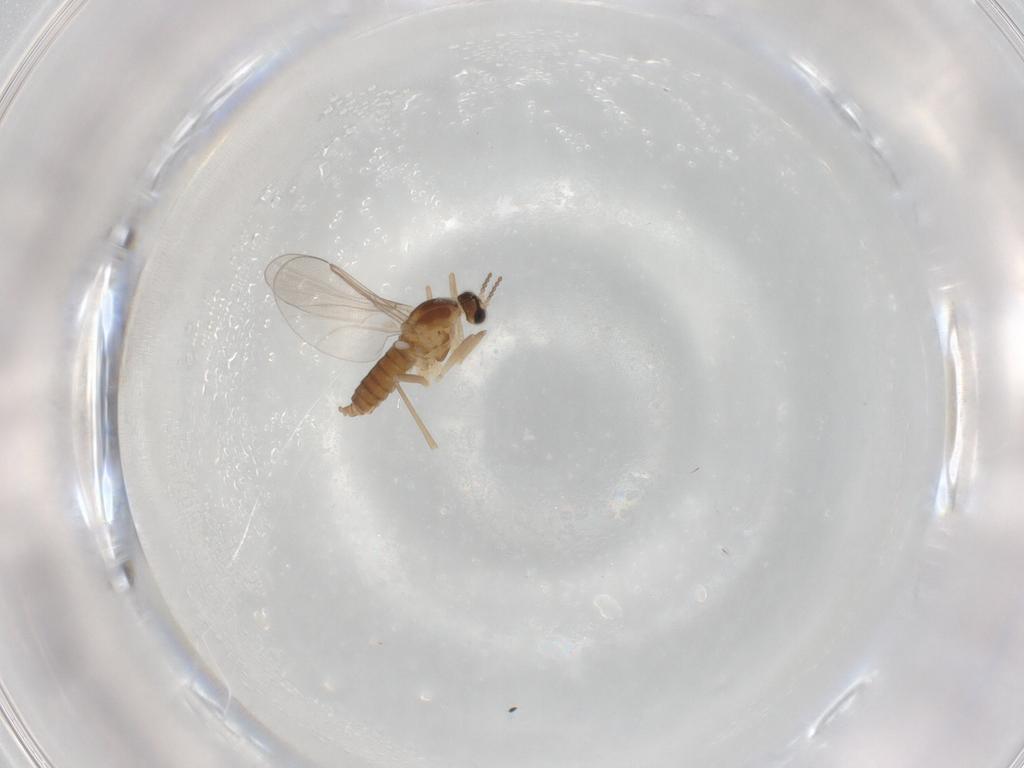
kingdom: Animalia
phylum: Arthropoda
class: Insecta
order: Diptera
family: Cecidomyiidae
